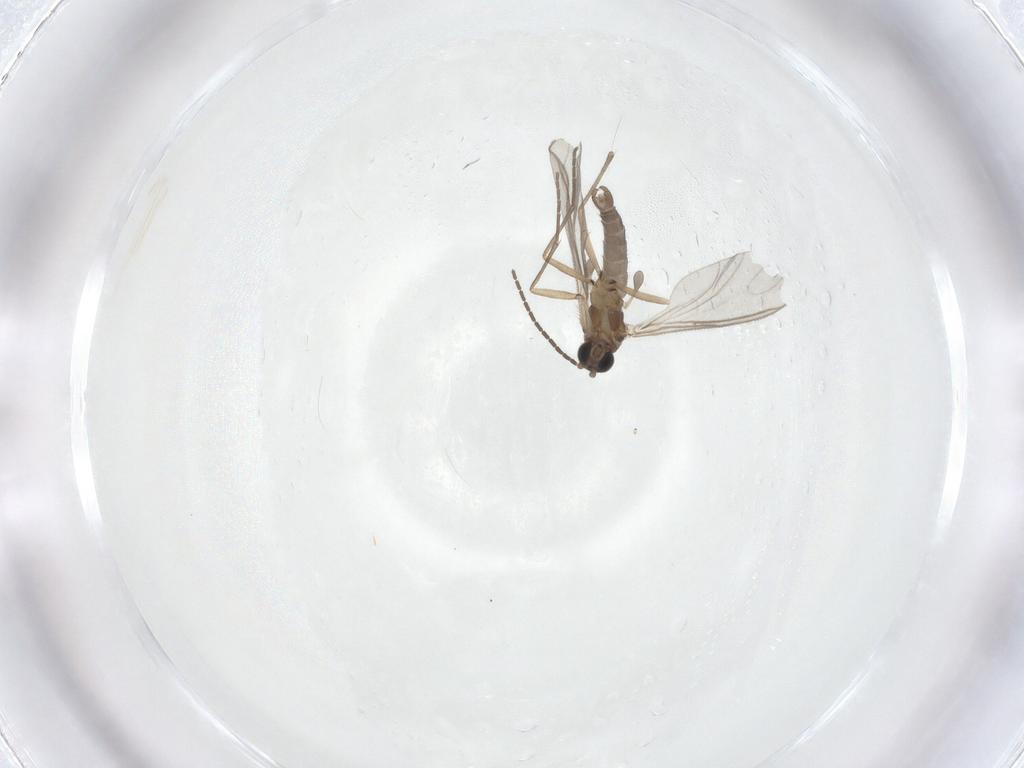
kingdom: Animalia
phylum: Arthropoda
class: Insecta
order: Diptera
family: Sciaridae
